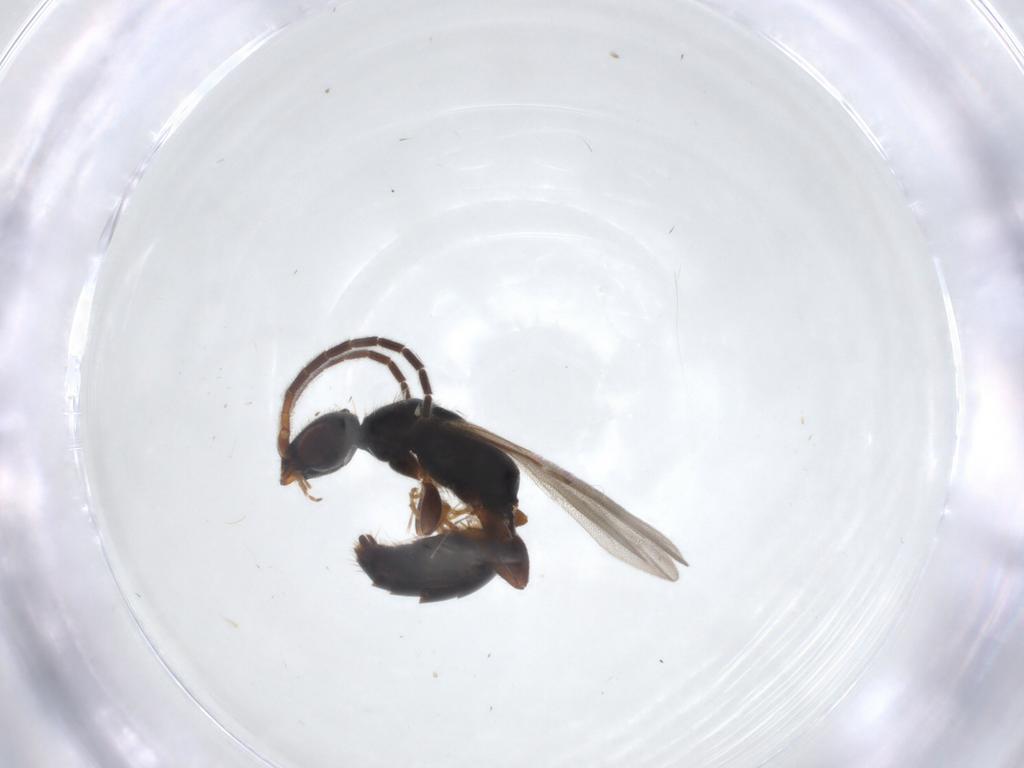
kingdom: Animalia
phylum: Arthropoda
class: Insecta
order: Hymenoptera
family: Bethylidae
